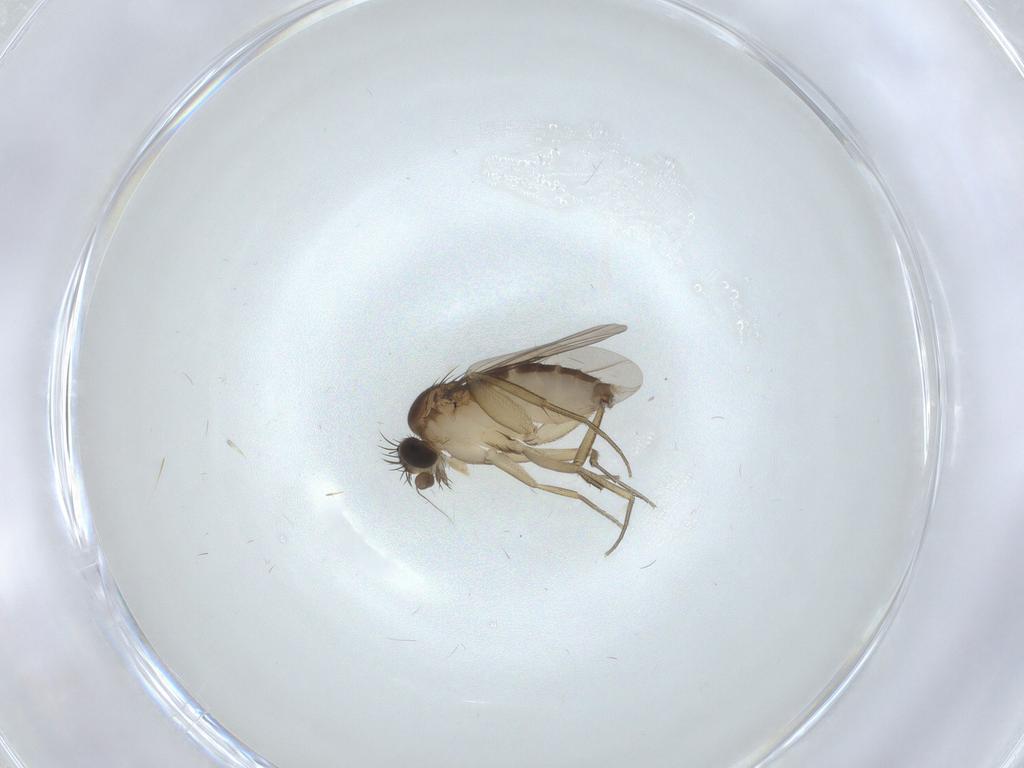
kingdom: Animalia
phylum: Arthropoda
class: Insecta
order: Diptera
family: Phoridae
